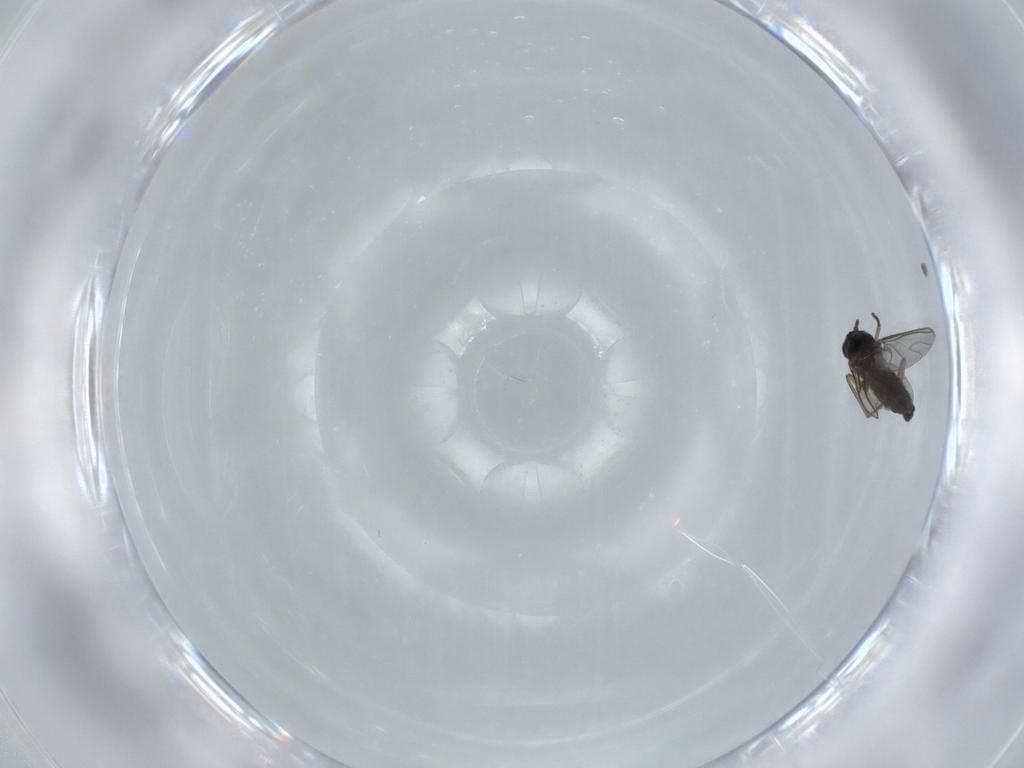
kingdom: Animalia
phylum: Arthropoda
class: Insecta
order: Diptera
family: Sciaridae
